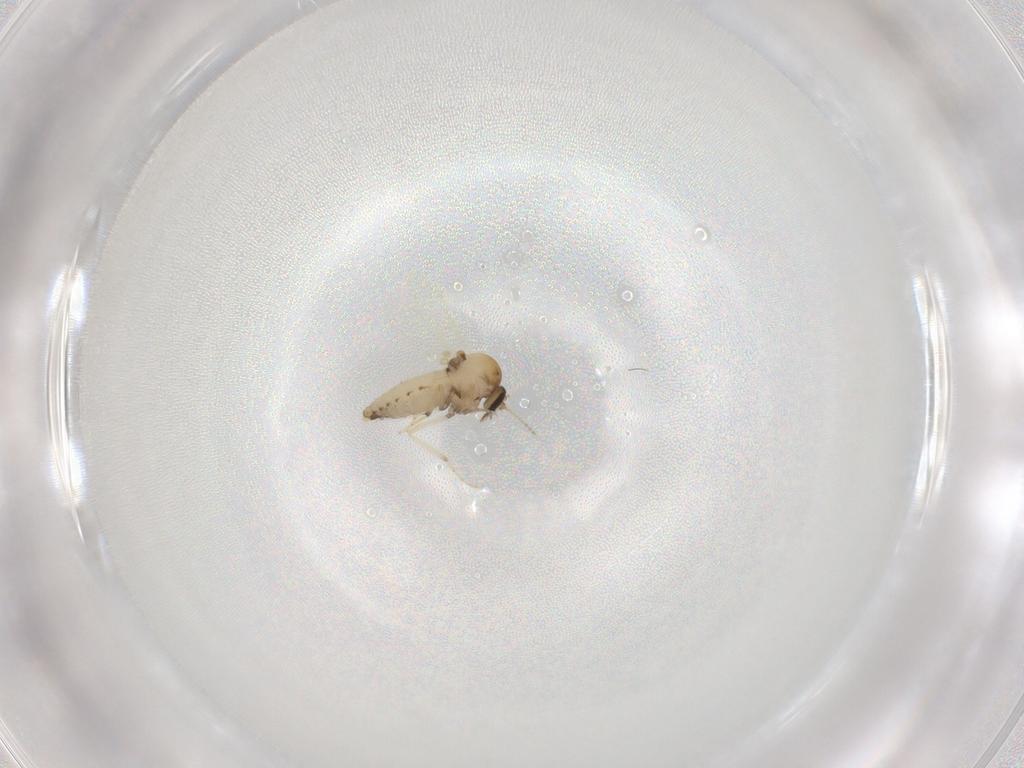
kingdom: Animalia
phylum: Arthropoda
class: Insecta
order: Diptera
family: Ceratopogonidae
